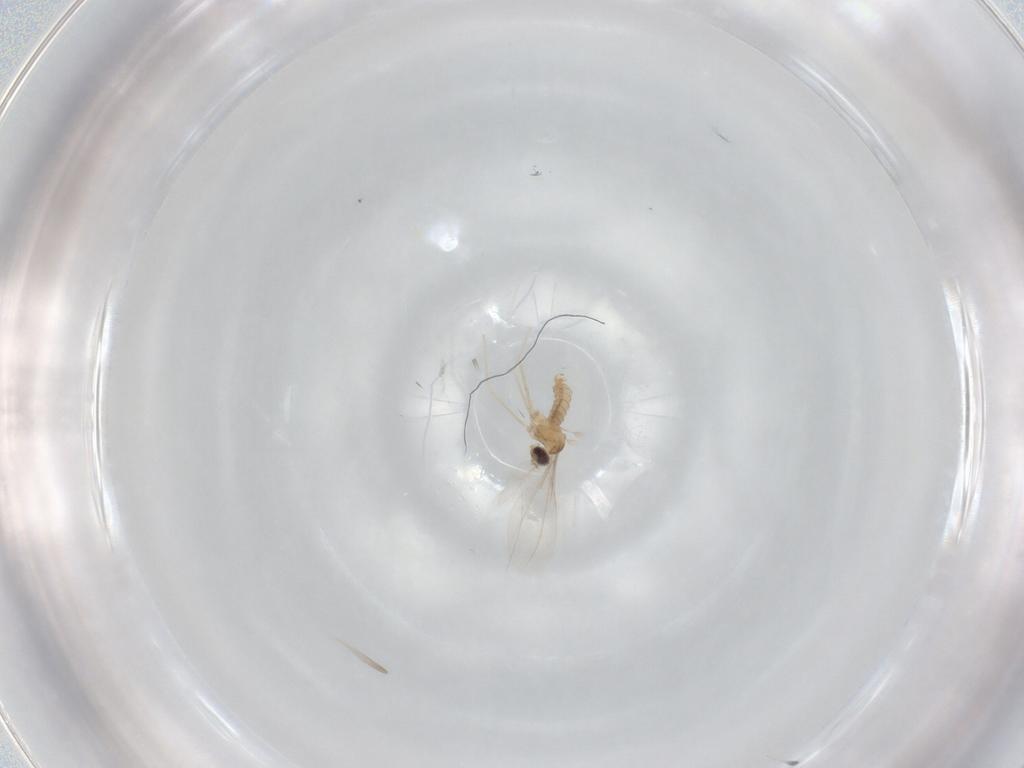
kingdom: Animalia
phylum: Arthropoda
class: Insecta
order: Diptera
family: Cecidomyiidae
